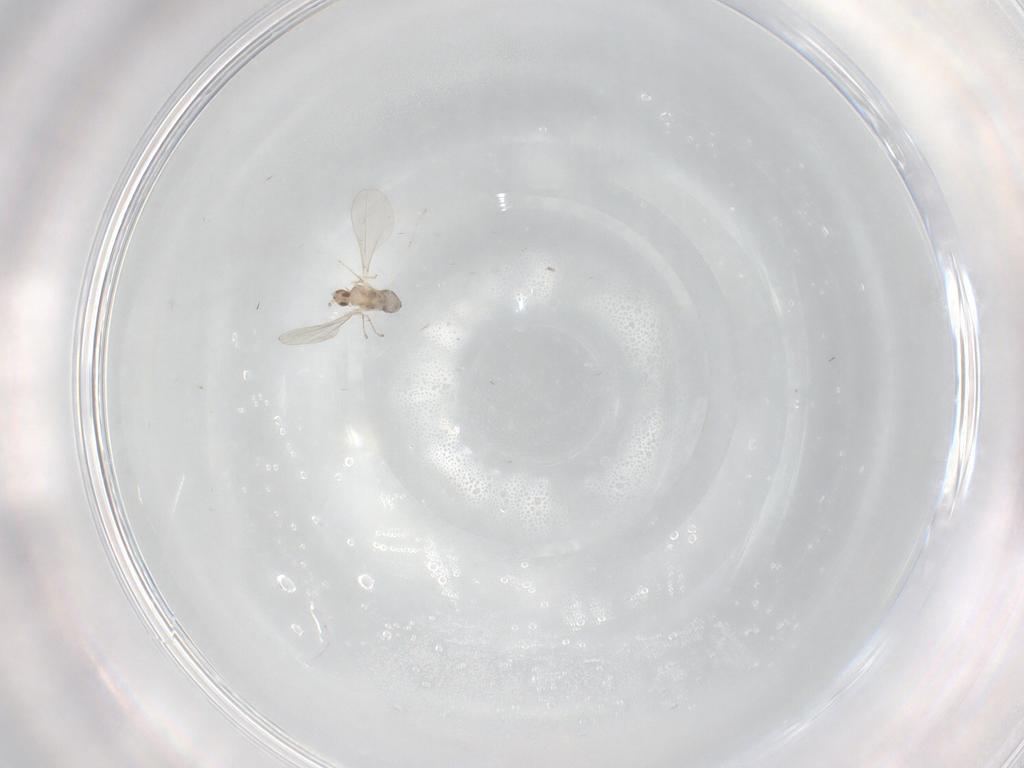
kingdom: Animalia
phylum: Arthropoda
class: Insecta
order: Diptera
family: Cecidomyiidae
